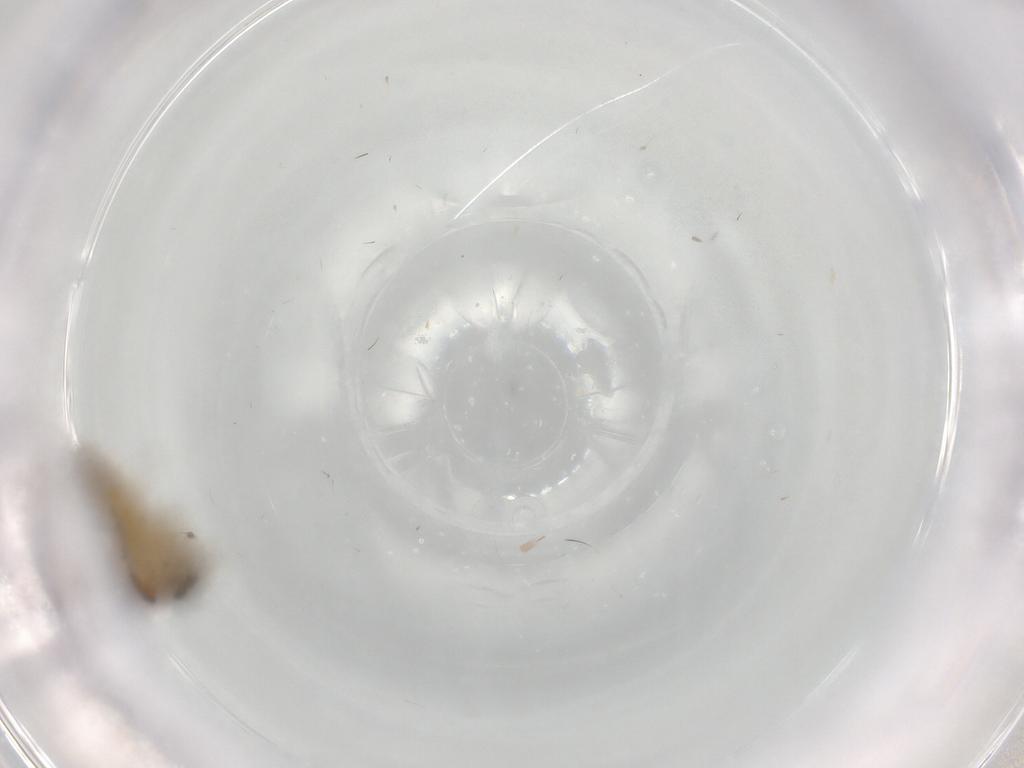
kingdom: Animalia
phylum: Arthropoda
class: Insecta
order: Diptera
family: Ceratopogonidae
